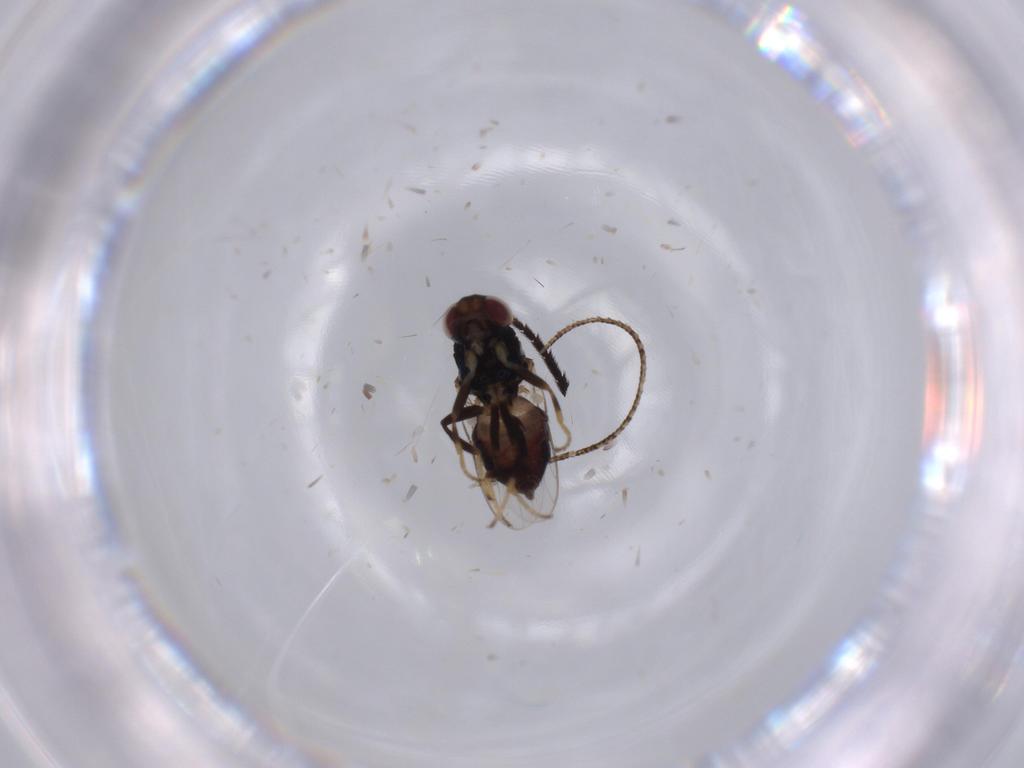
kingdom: Animalia
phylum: Arthropoda
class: Insecta
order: Diptera
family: Chloropidae
